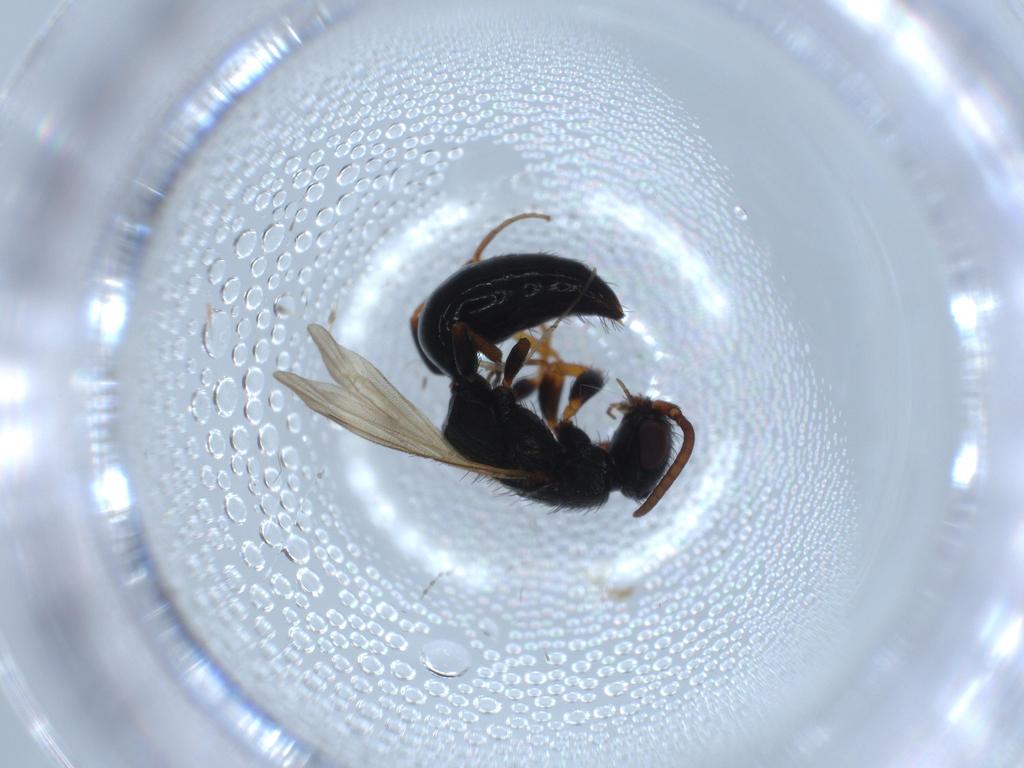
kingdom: Animalia
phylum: Arthropoda
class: Insecta
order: Hymenoptera
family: Bethylidae
